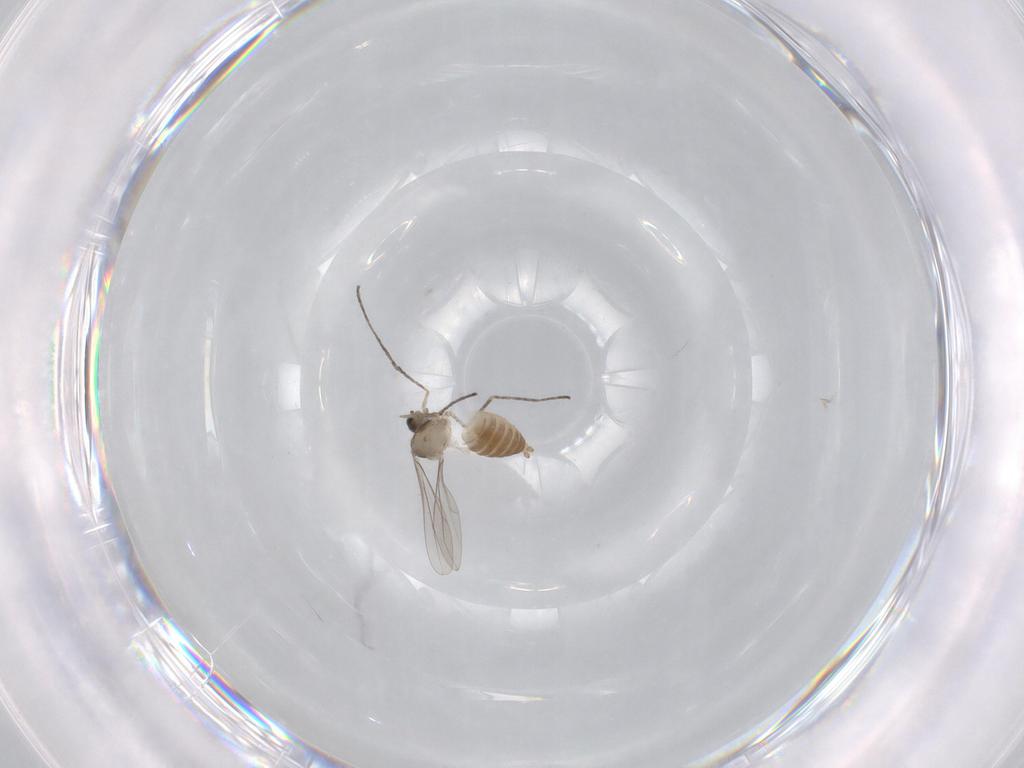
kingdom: Animalia
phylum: Arthropoda
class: Insecta
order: Diptera
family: Cecidomyiidae
